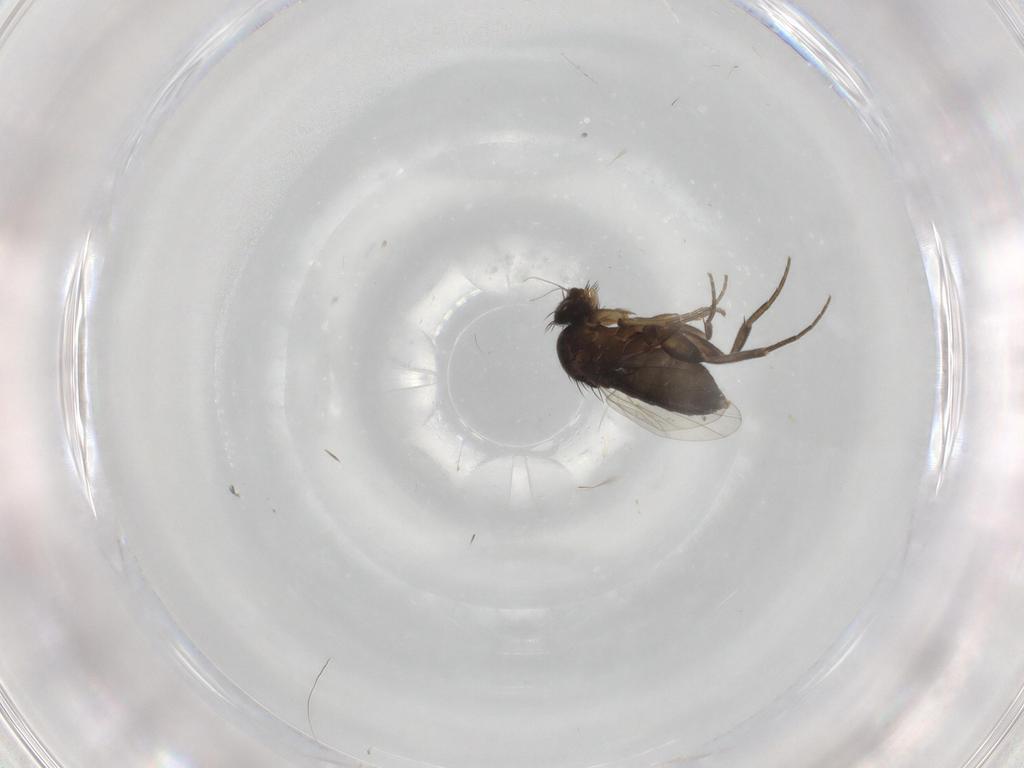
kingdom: Animalia
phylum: Arthropoda
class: Insecta
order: Diptera
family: Phoridae
